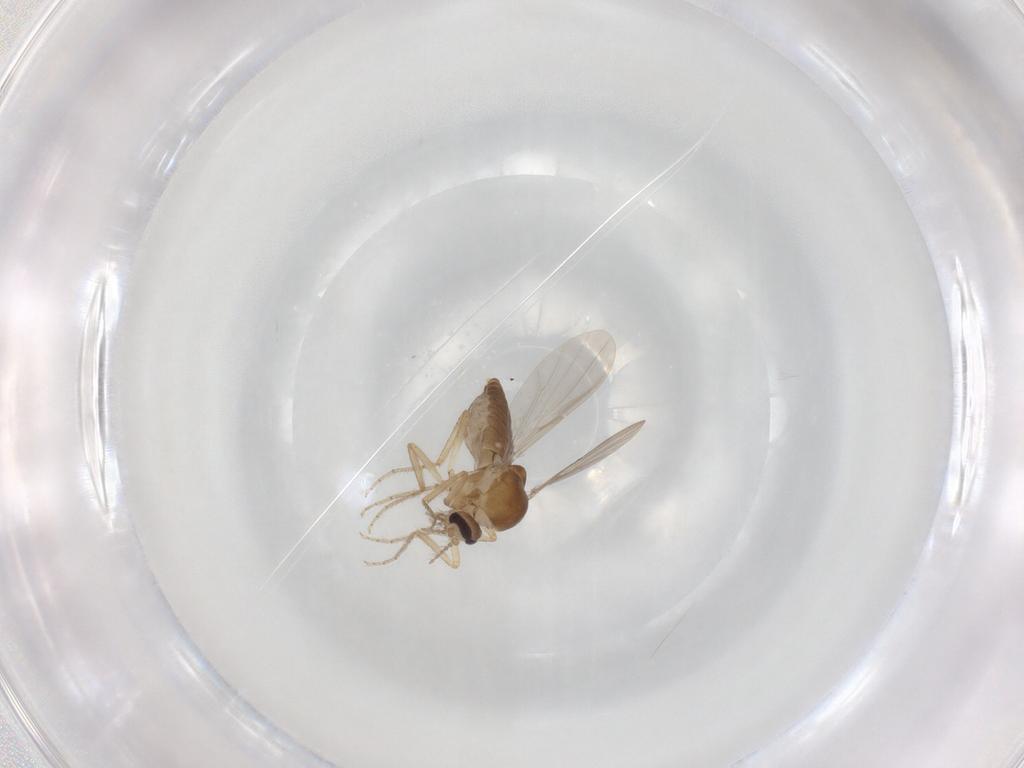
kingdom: Animalia
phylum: Arthropoda
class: Insecta
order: Diptera
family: Ceratopogonidae
